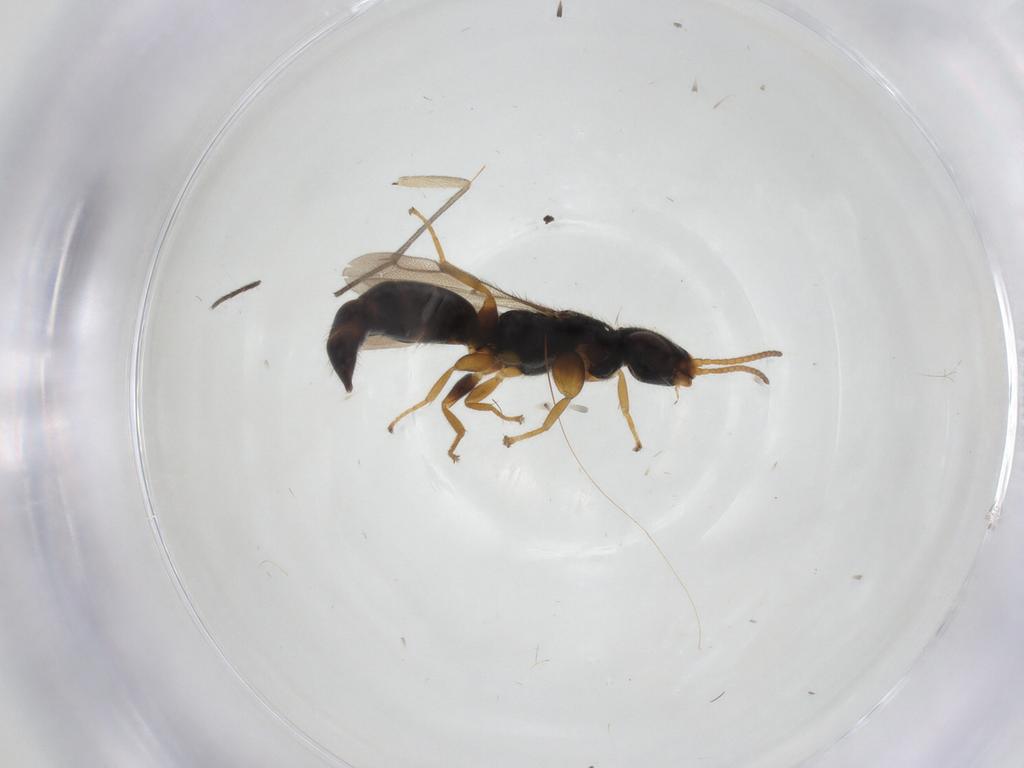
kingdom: Animalia
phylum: Arthropoda
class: Insecta
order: Hymenoptera
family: Bethylidae
